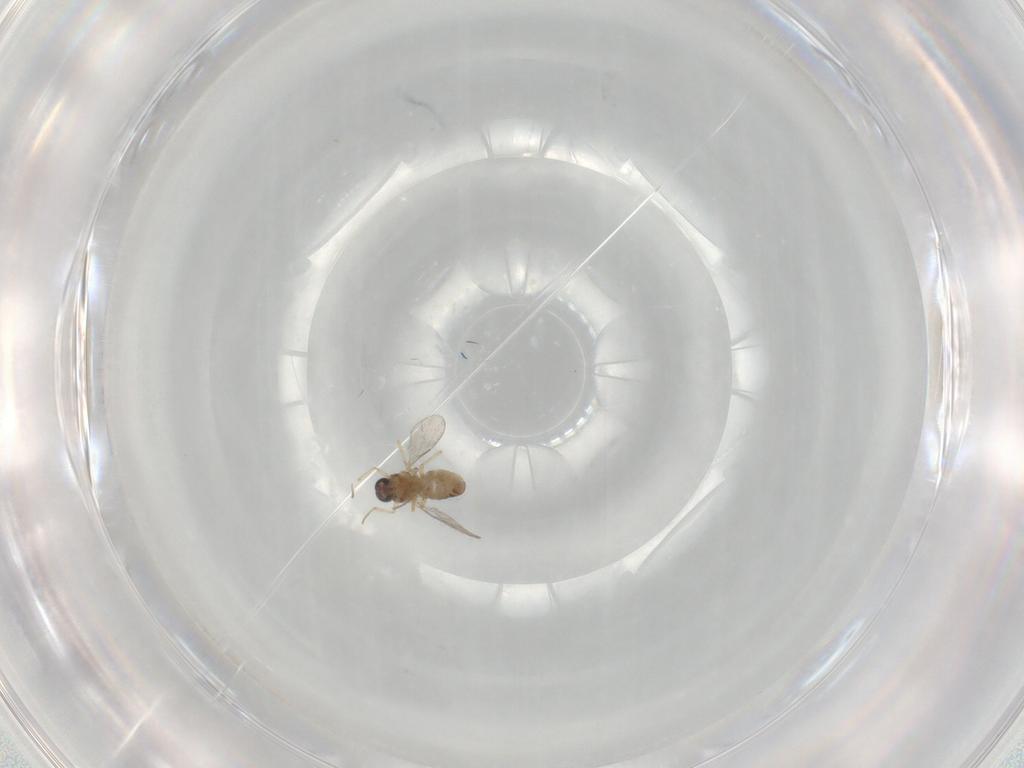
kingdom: Animalia
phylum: Arthropoda
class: Insecta
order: Diptera
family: Ceratopogonidae
